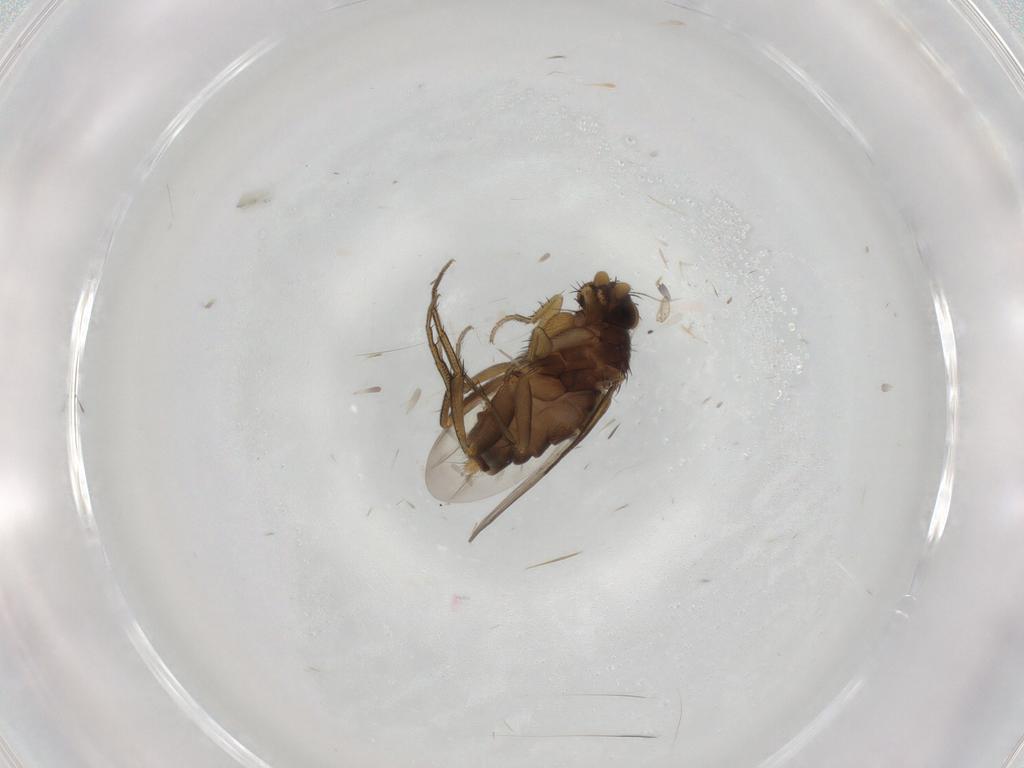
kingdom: Animalia
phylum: Arthropoda
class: Insecta
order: Diptera
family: Phoridae
